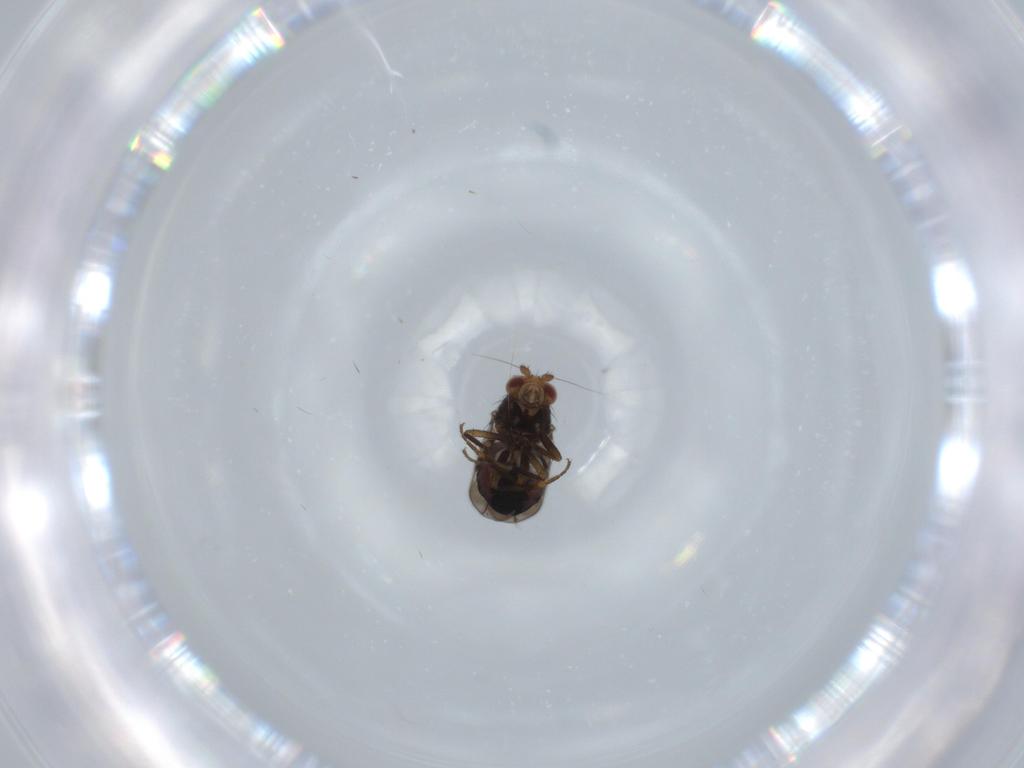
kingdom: Animalia
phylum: Arthropoda
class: Insecta
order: Diptera
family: Sphaeroceridae
